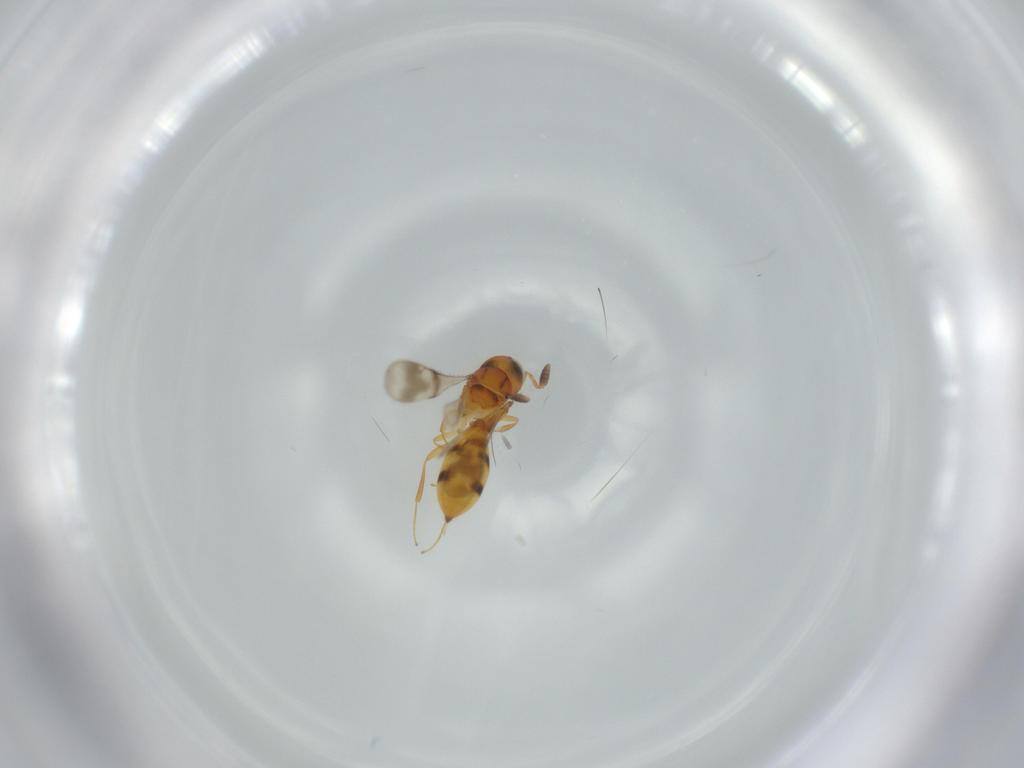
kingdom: Animalia
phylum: Arthropoda
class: Insecta
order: Hymenoptera
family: Scelionidae
